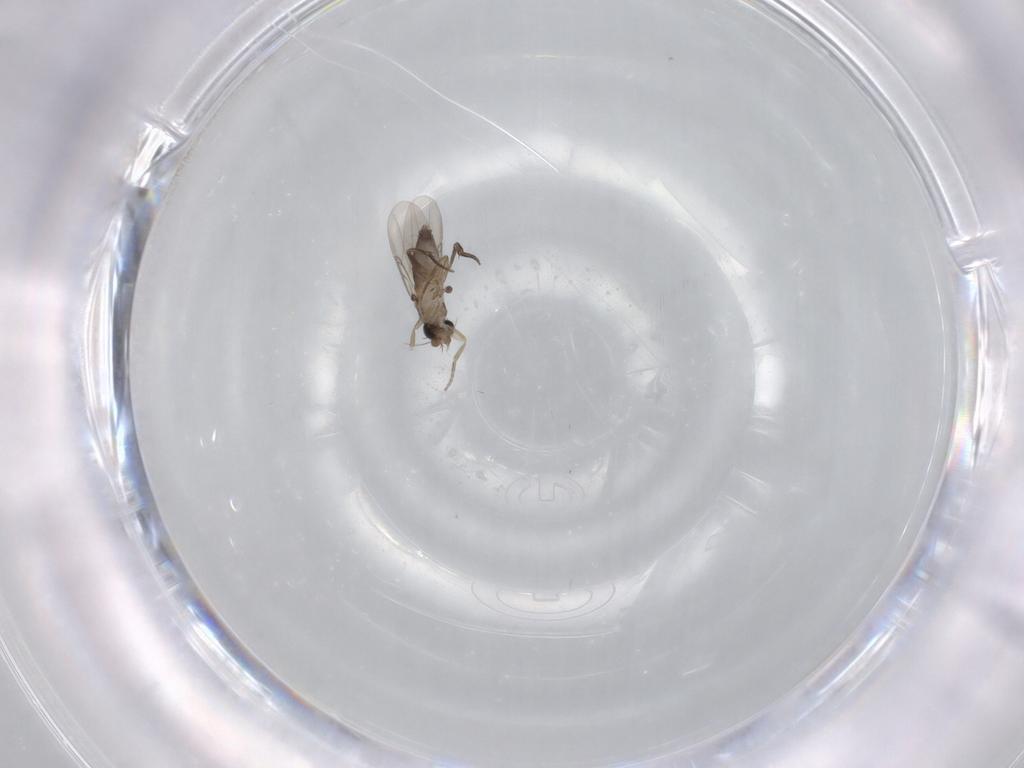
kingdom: Animalia
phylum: Arthropoda
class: Insecta
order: Diptera
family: Phoridae
